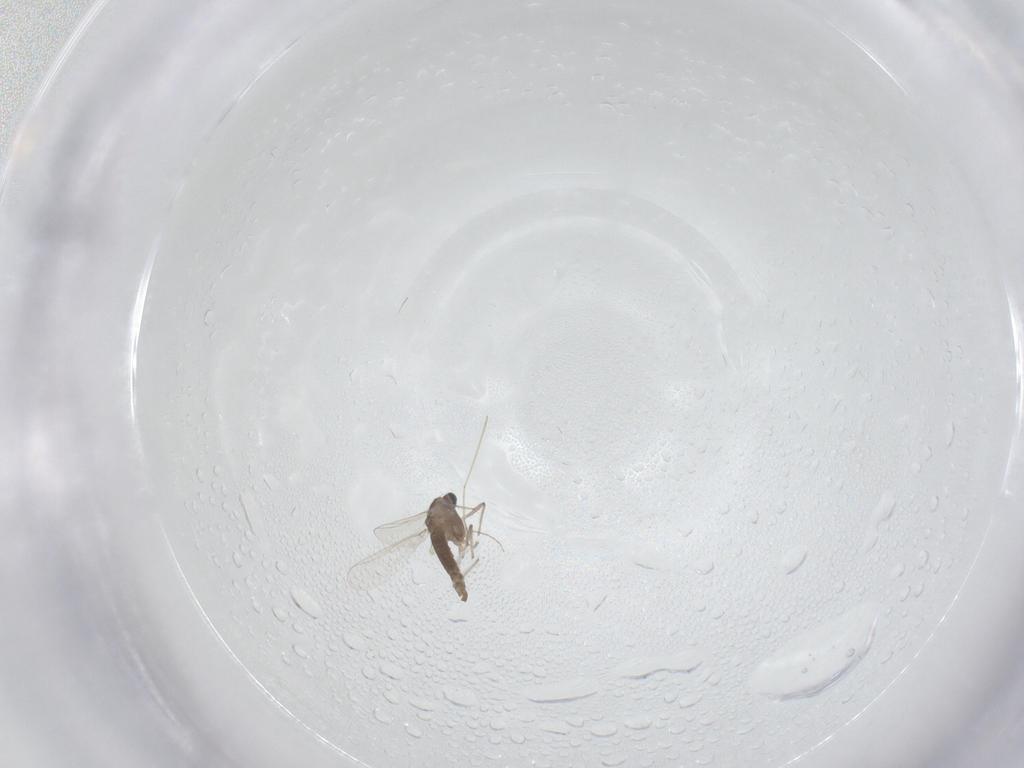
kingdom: Animalia
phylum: Arthropoda
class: Insecta
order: Diptera
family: Chironomidae
